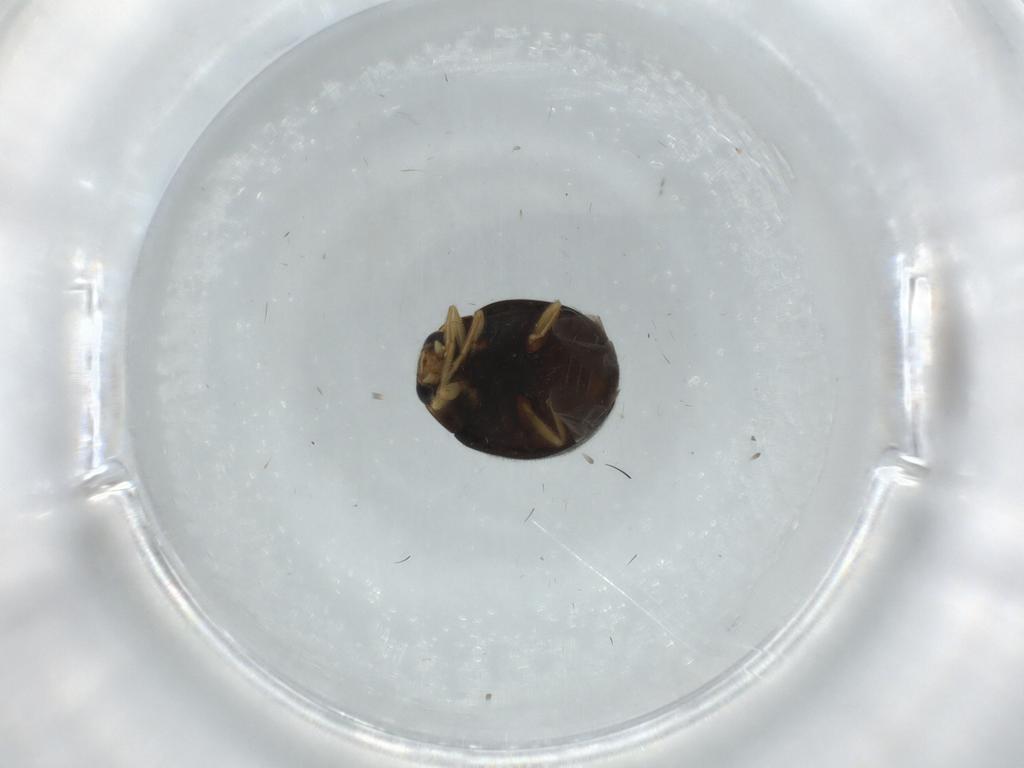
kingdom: Animalia
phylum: Arthropoda
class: Insecta
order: Coleoptera
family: Coccinellidae
